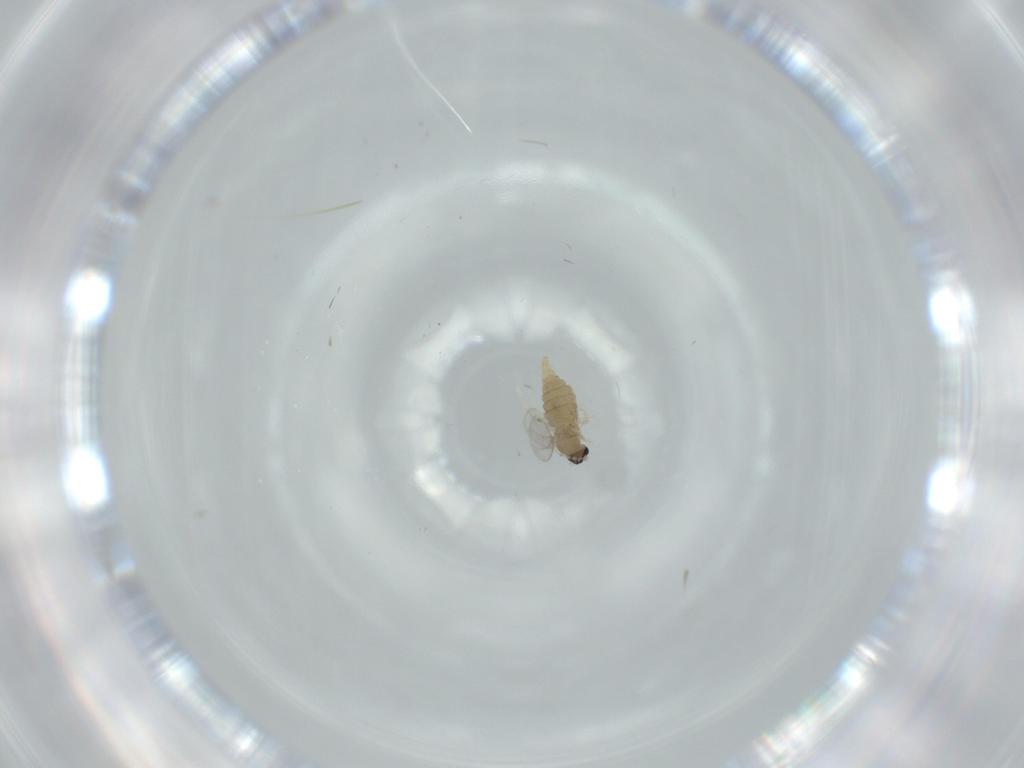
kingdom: Animalia
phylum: Arthropoda
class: Insecta
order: Diptera
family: Cecidomyiidae
